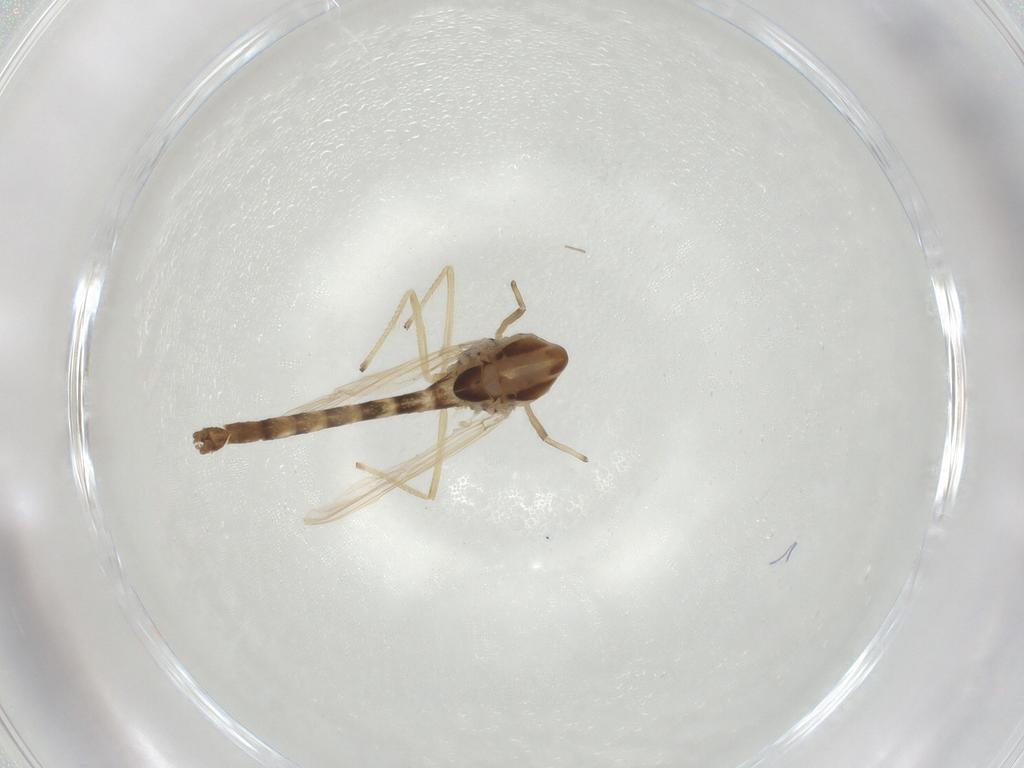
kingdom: Animalia
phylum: Arthropoda
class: Insecta
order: Diptera
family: Chironomidae
